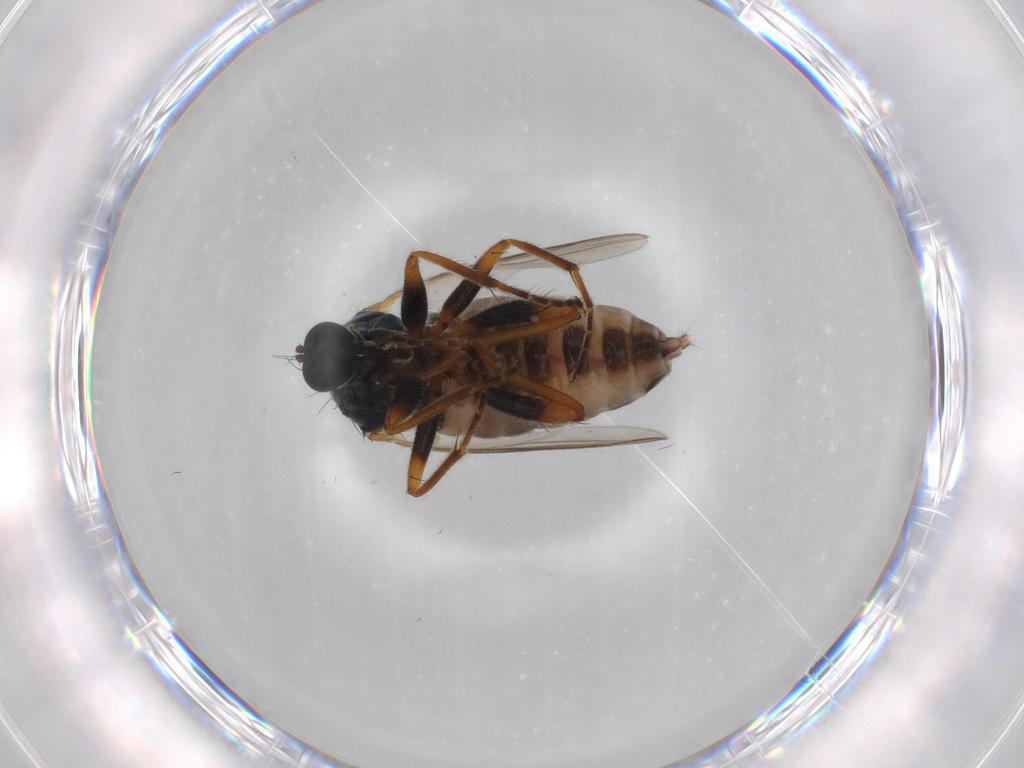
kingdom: Animalia
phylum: Arthropoda
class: Insecta
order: Diptera
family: Hybotidae
